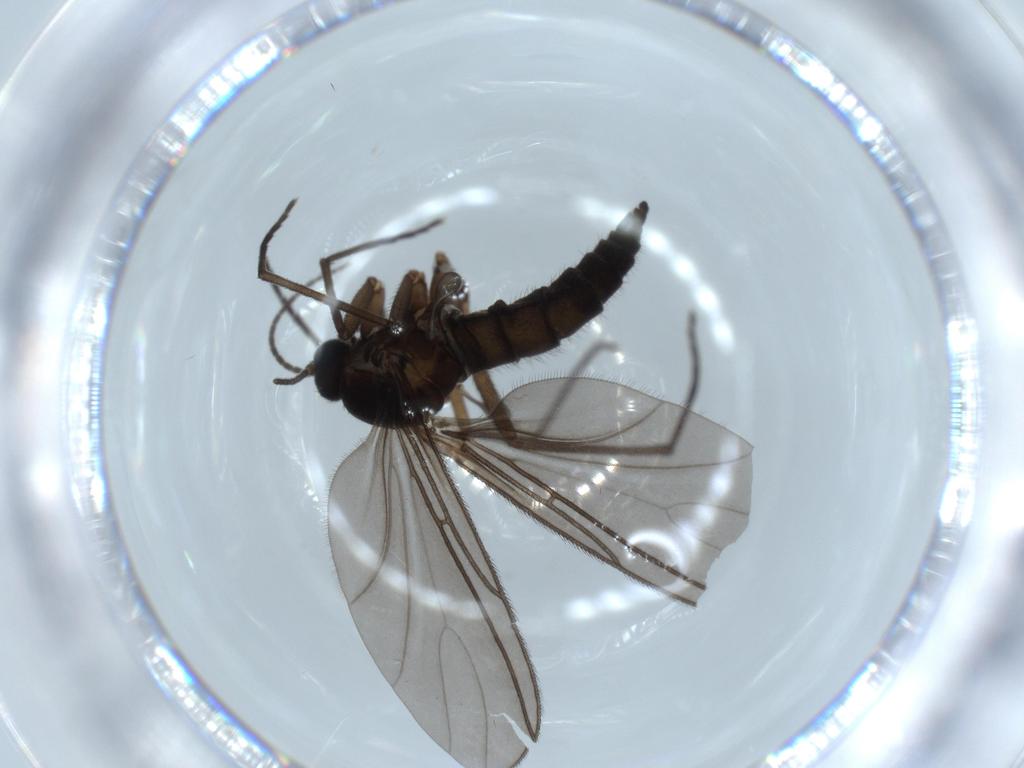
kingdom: Animalia
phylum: Arthropoda
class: Insecta
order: Diptera
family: Sciaridae
